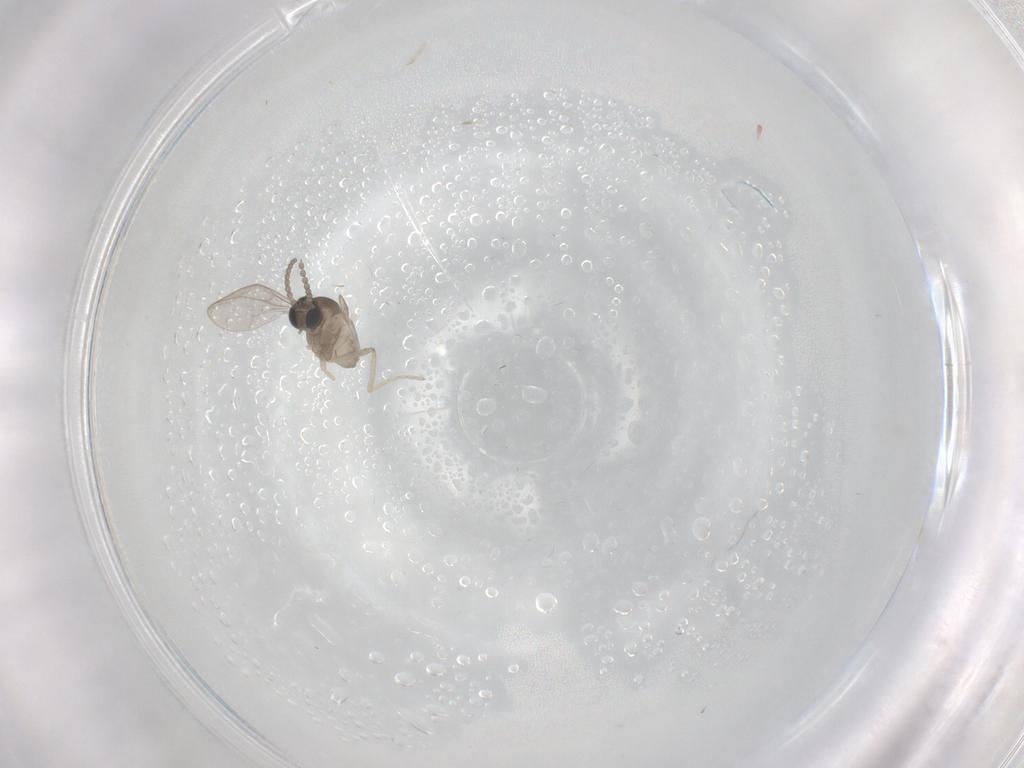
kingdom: Animalia
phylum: Arthropoda
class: Insecta
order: Diptera
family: Cecidomyiidae
